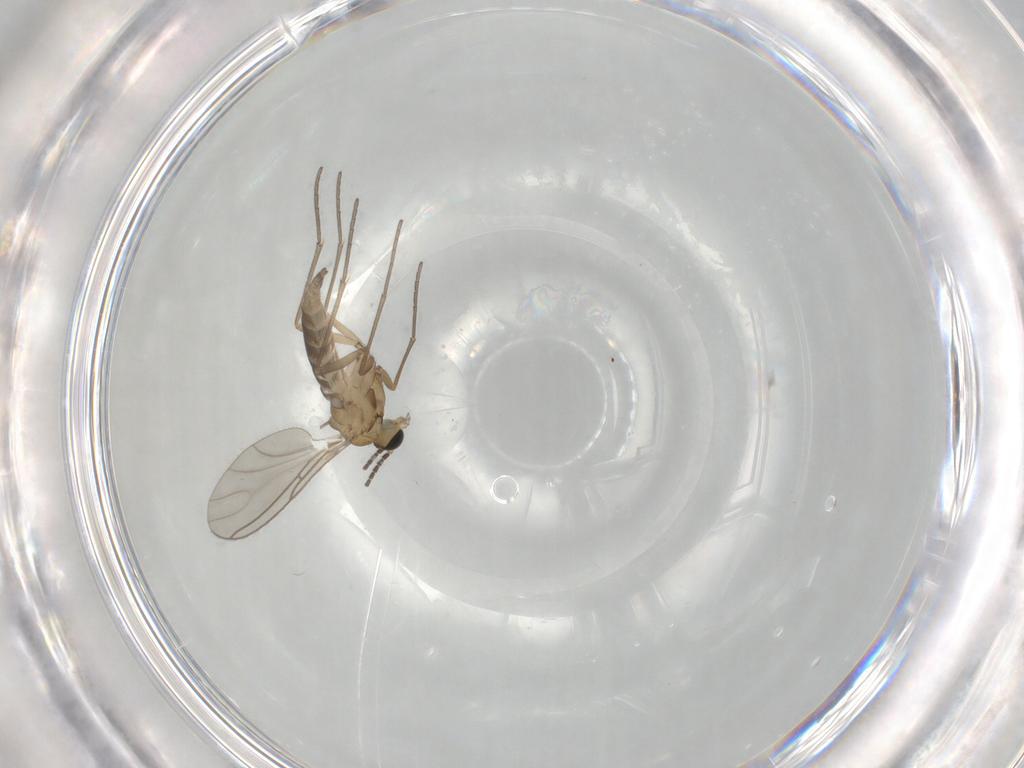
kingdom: Animalia
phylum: Arthropoda
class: Insecta
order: Diptera
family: Sciaridae
